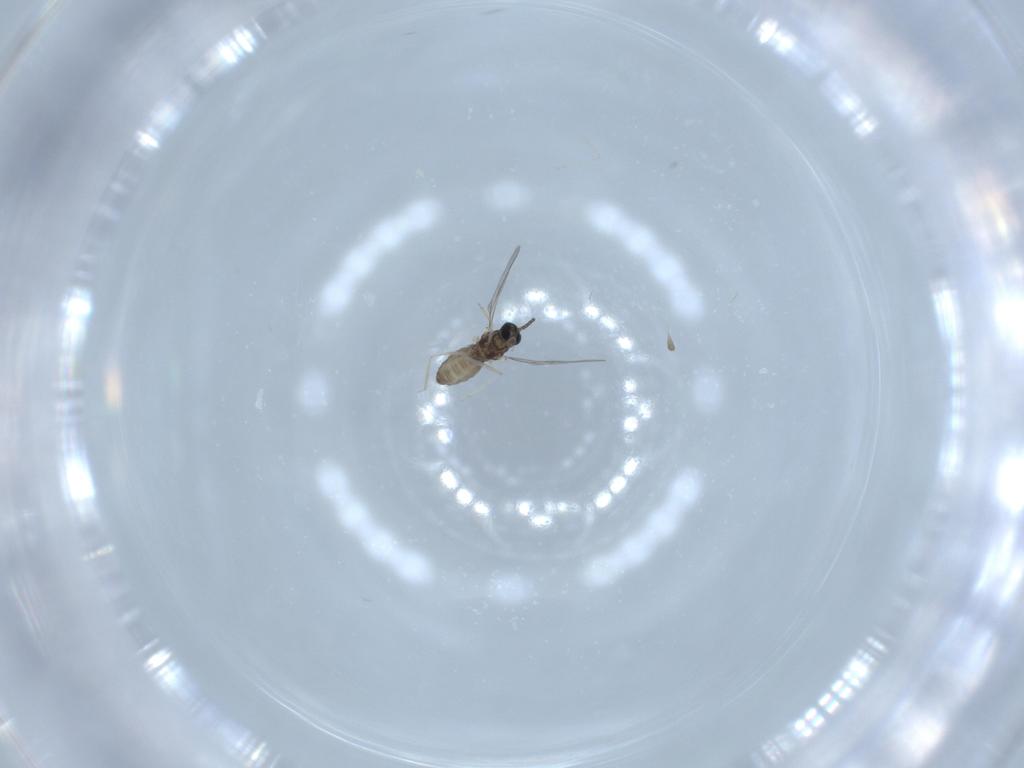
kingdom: Animalia
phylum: Arthropoda
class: Insecta
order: Diptera
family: Cecidomyiidae
